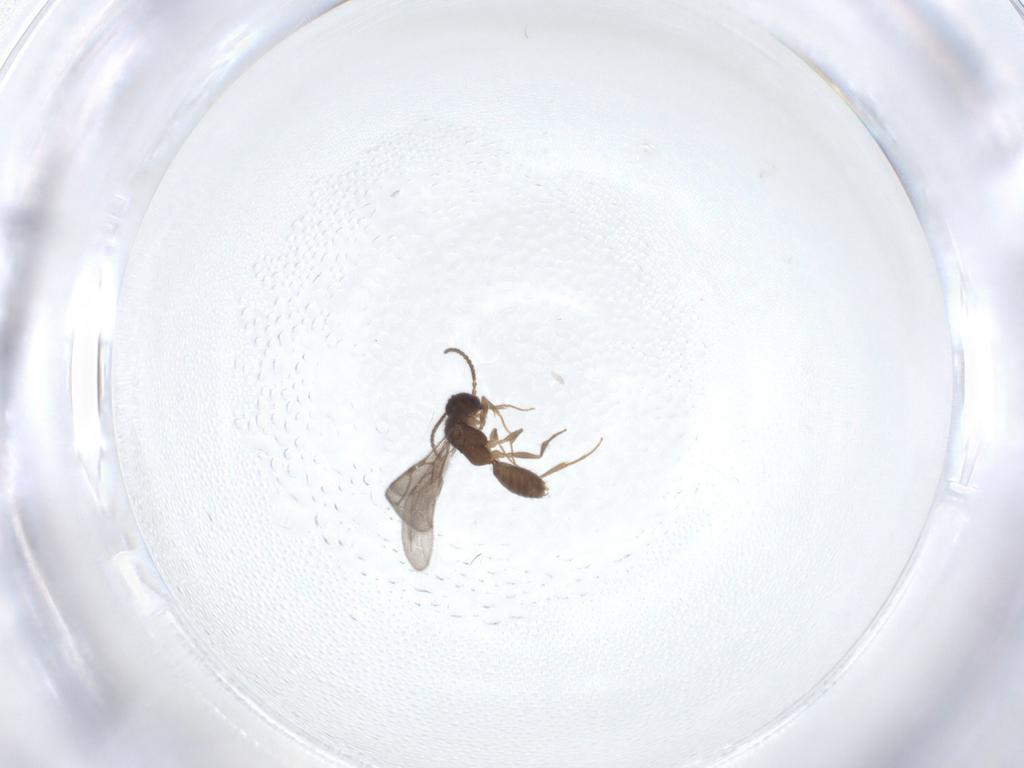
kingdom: Animalia
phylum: Arthropoda
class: Insecta
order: Hymenoptera
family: Bethylidae
